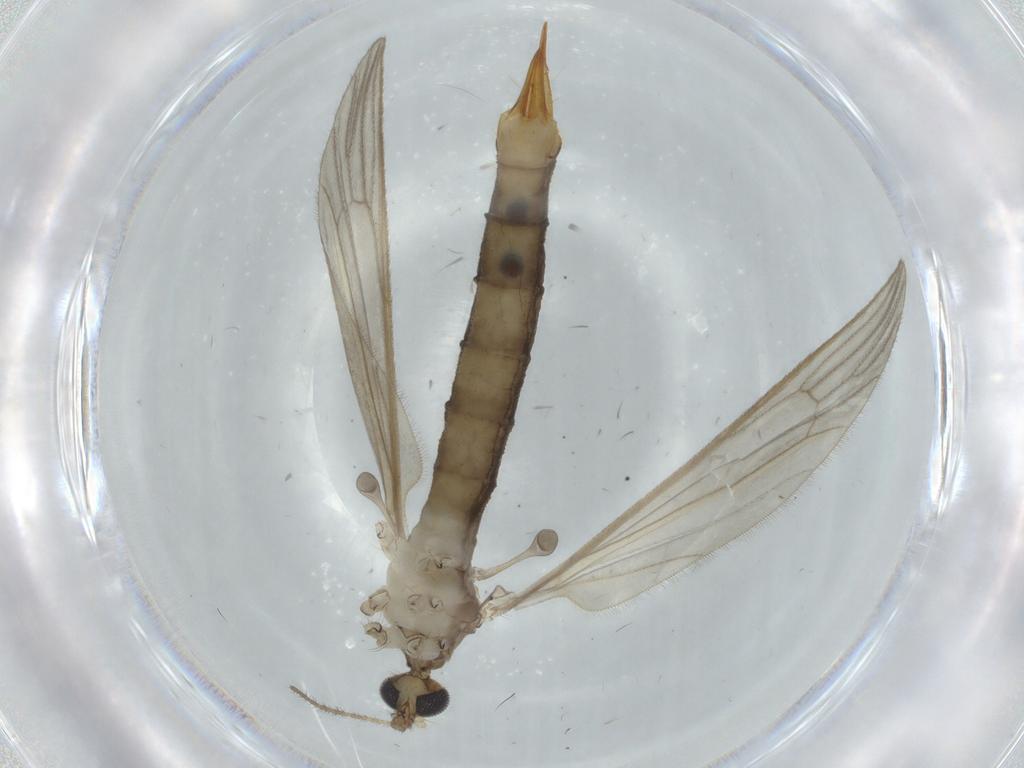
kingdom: Animalia
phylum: Arthropoda
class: Insecta
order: Diptera
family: Limoniidae
